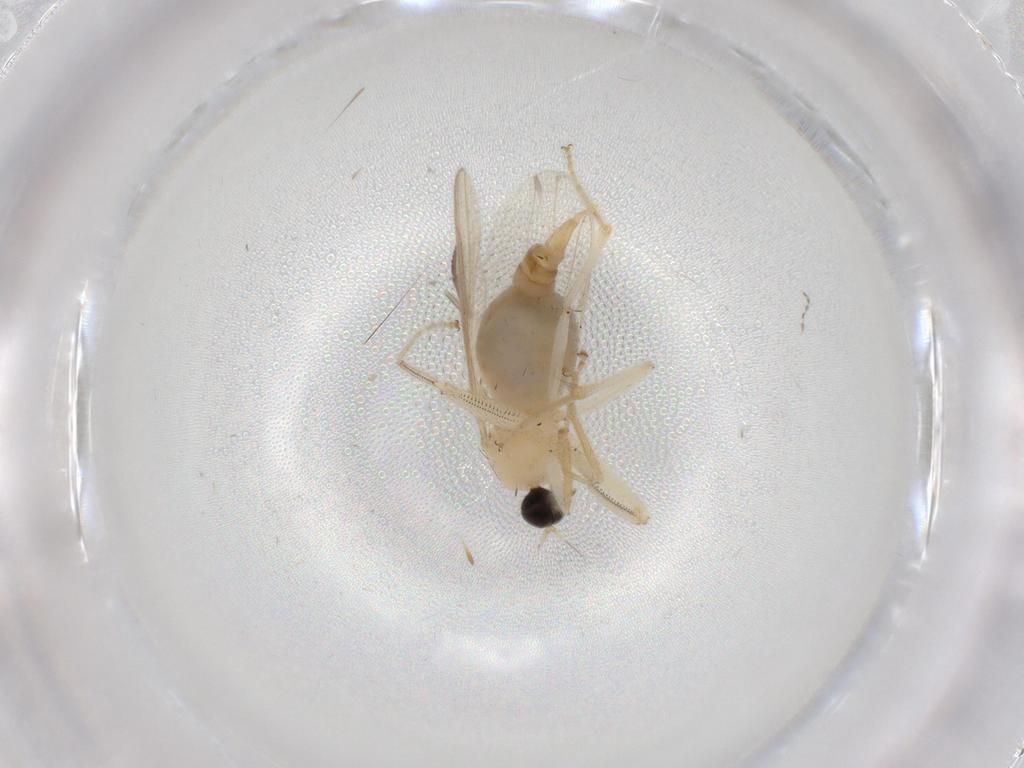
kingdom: Animalia
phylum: Arthropoda
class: Insecta
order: Diptera
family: Hybotidae
